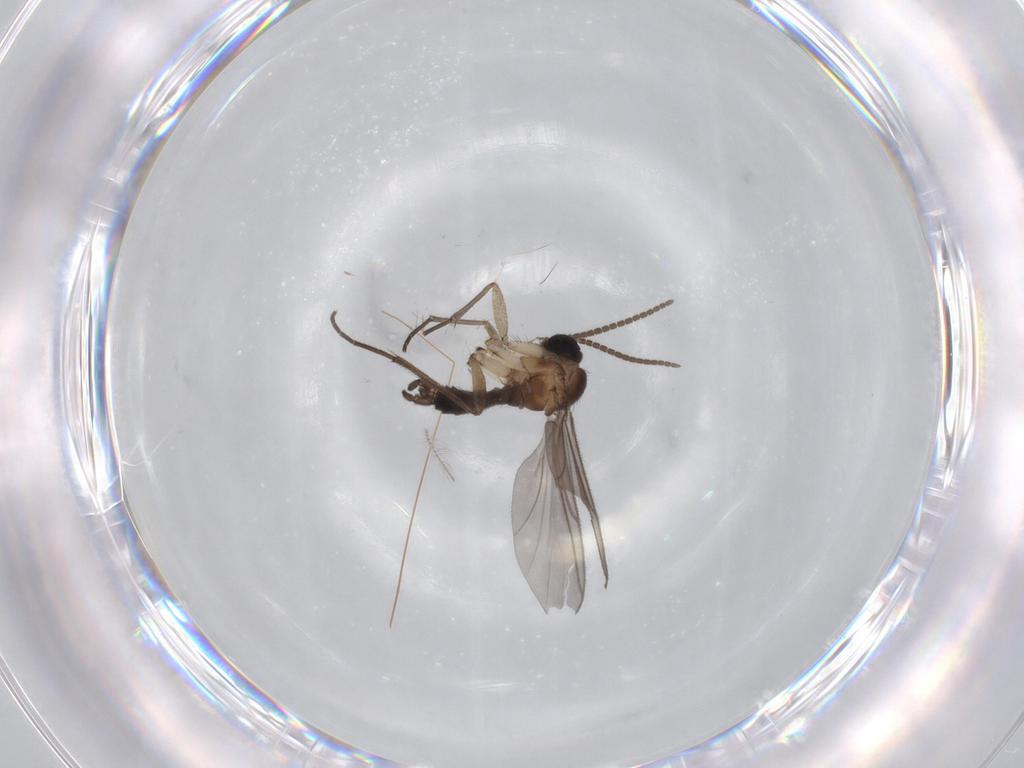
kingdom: Animalia
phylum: Arthropoda
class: Insecta
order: Diptera
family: Chironomidae
